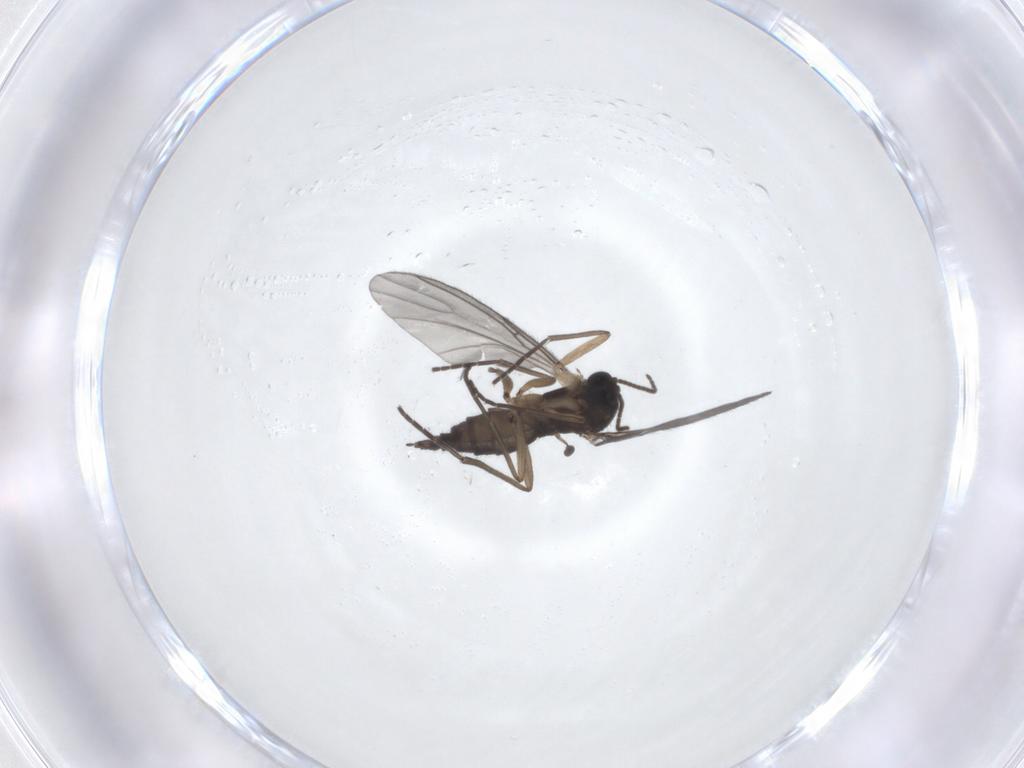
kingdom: Animalia
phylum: Arthropoda
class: Insecta
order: Diptera
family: Sciaridae
